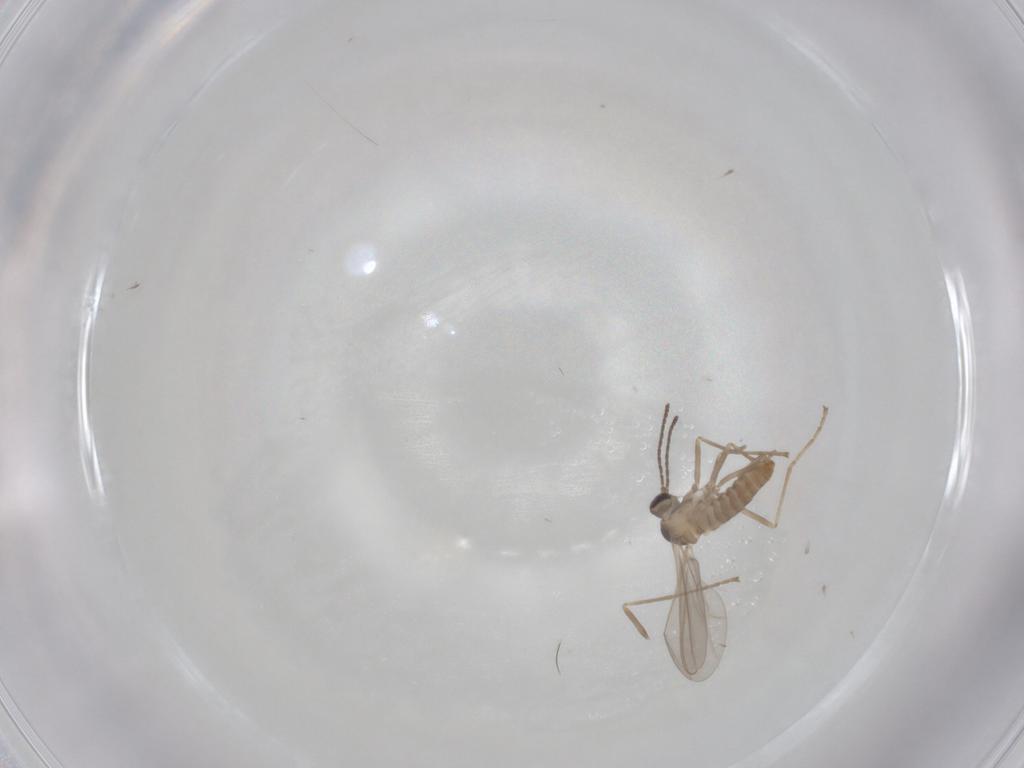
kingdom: Animalia
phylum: Arthropoda
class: Insecta
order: Diptera
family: Cecidomyiidae
